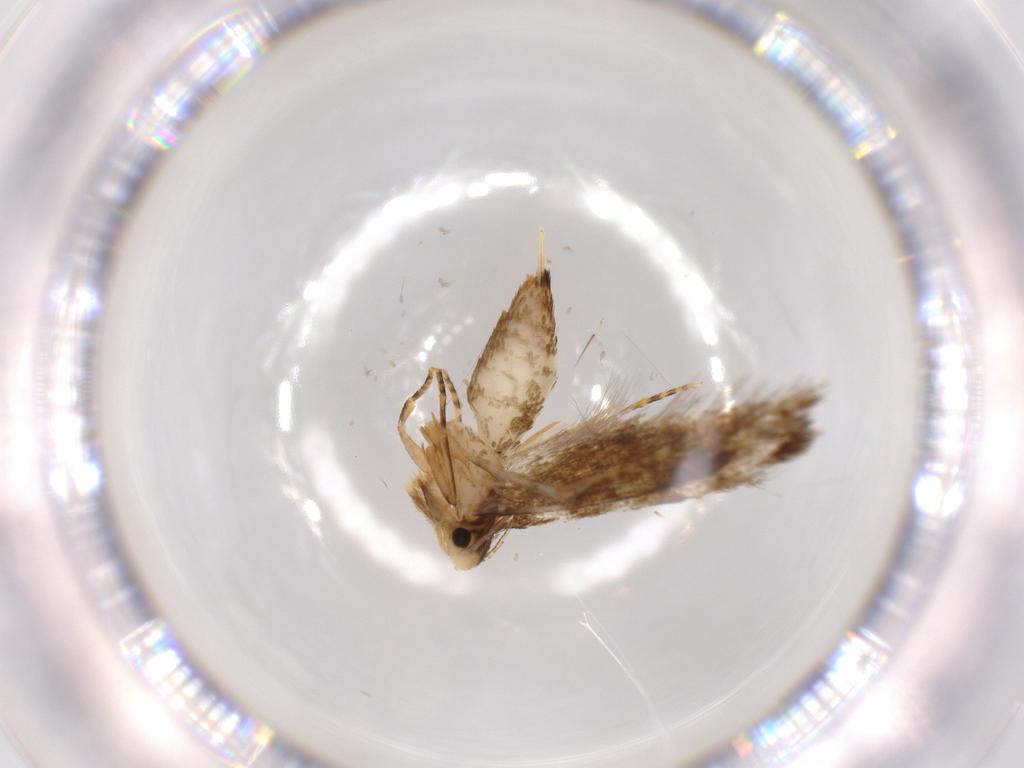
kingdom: Animalia
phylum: Arthropoda
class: Insecta
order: Lepidoptera
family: Tineidae
